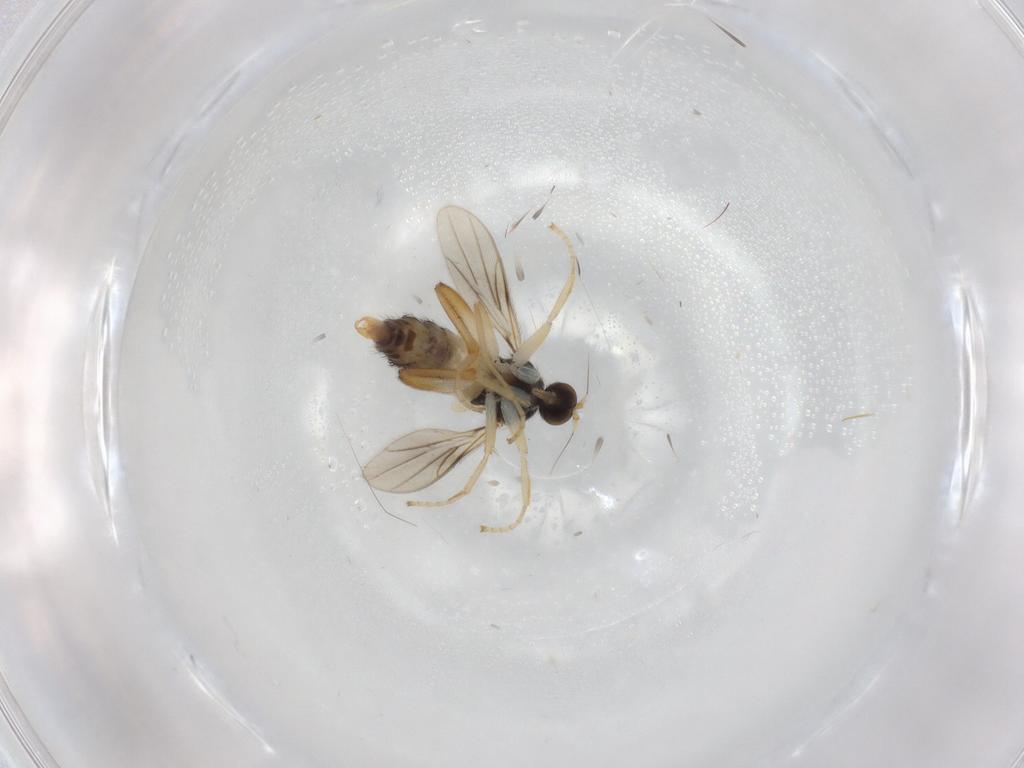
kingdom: Animalia
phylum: Arthropoda
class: Insecta
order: Diptera
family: Chironomidae
